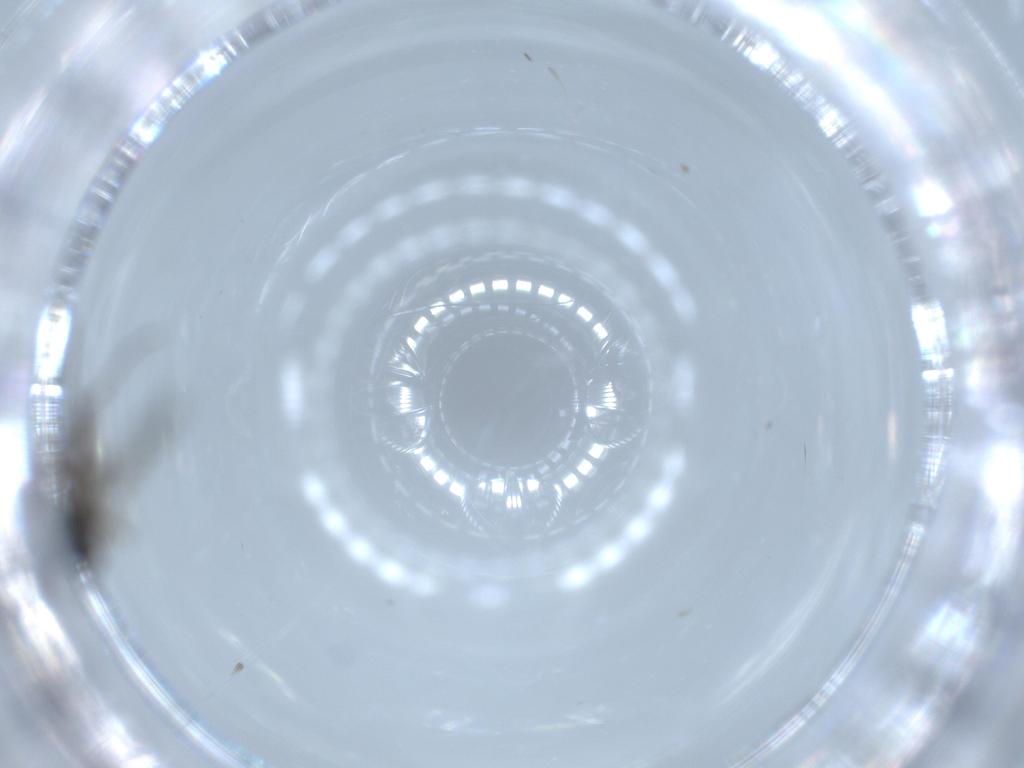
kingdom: Animalia
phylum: Arthropoda
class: Insecta
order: Diptera
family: Sciaridae
